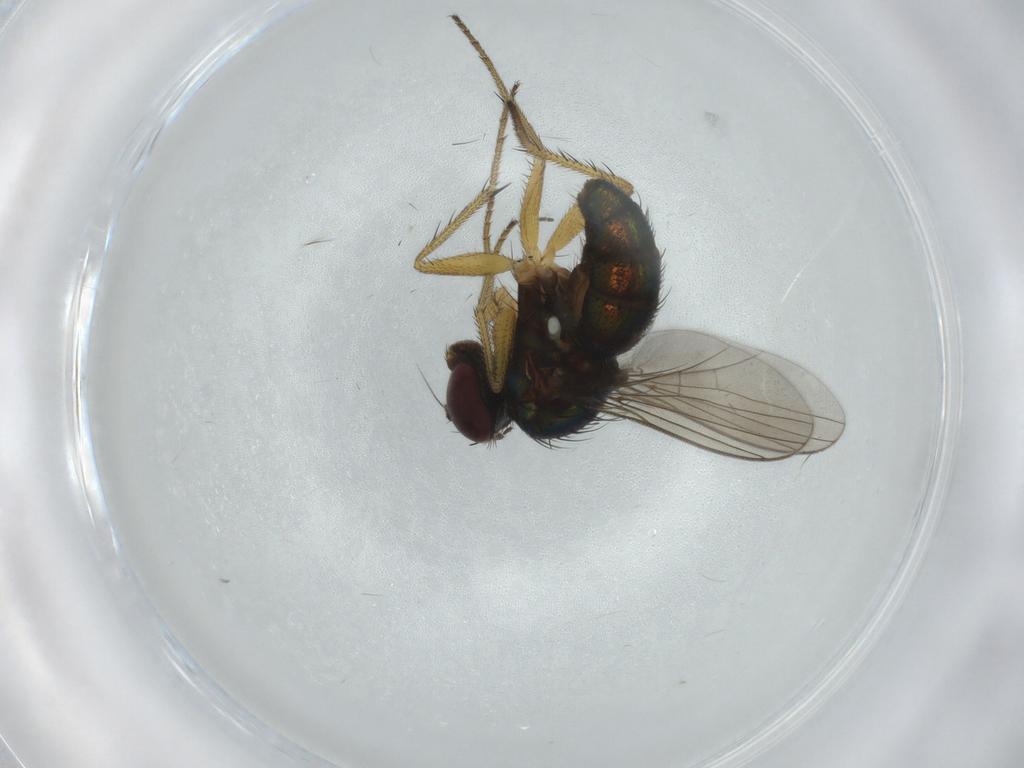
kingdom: Animalia
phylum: Arthropoda
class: Insecta
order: Diptera
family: Dolichopodidae
